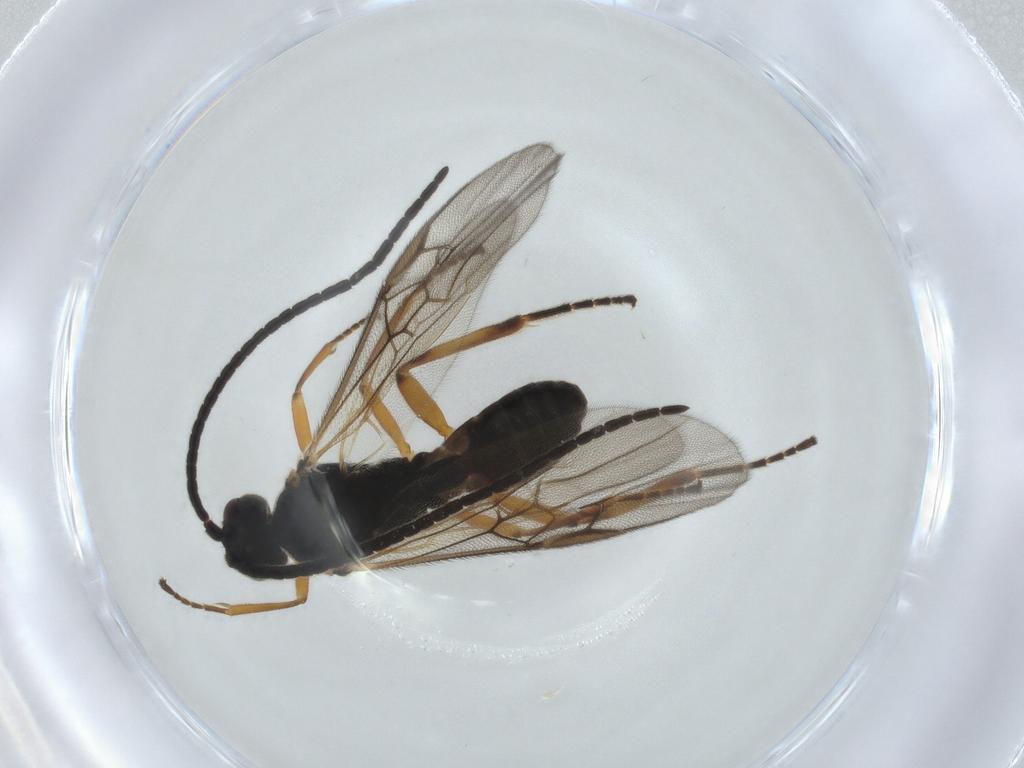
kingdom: Animalia
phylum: Arthropoda
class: Insecta
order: Hymenoptera
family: Braconidae
